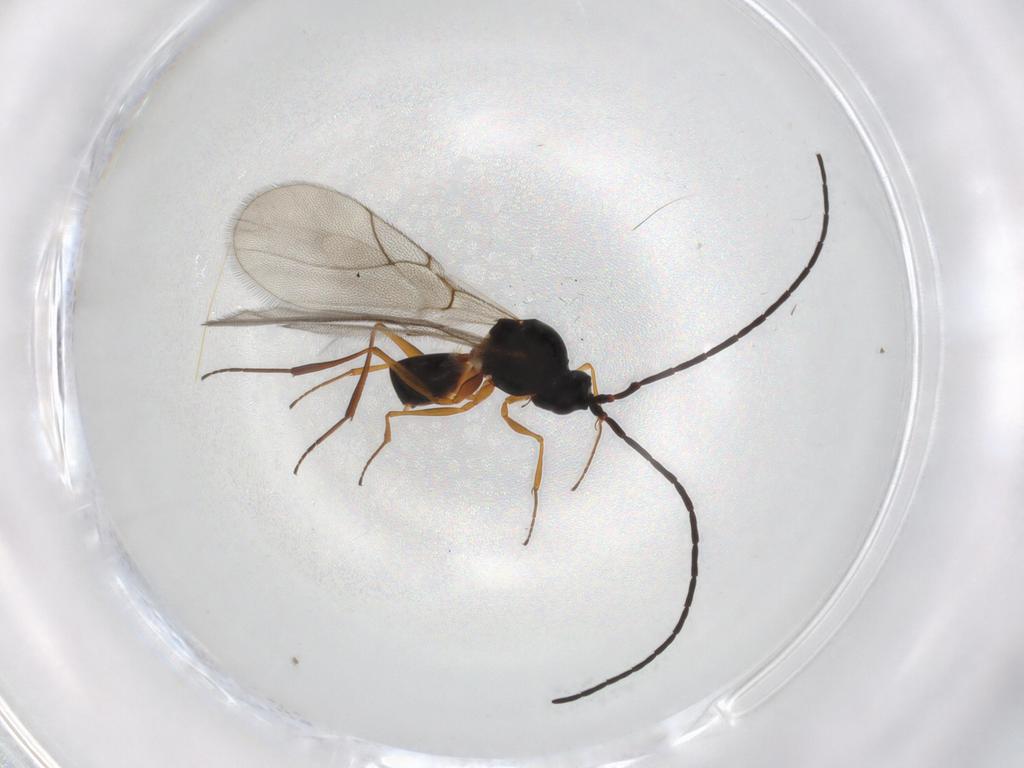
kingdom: Animalia
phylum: Arthropoda
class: Insecta
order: Hymenoptera
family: Figitidae
